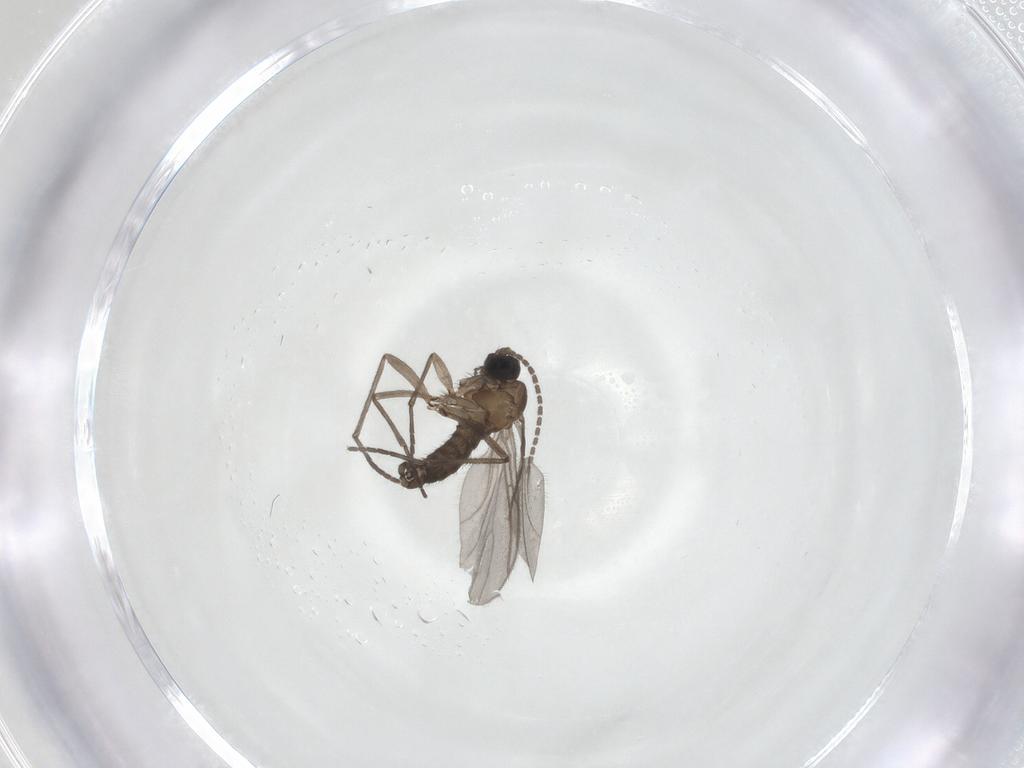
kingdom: Animalia
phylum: Arthropoda
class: Insecta
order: Diptera
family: Sciaridae
